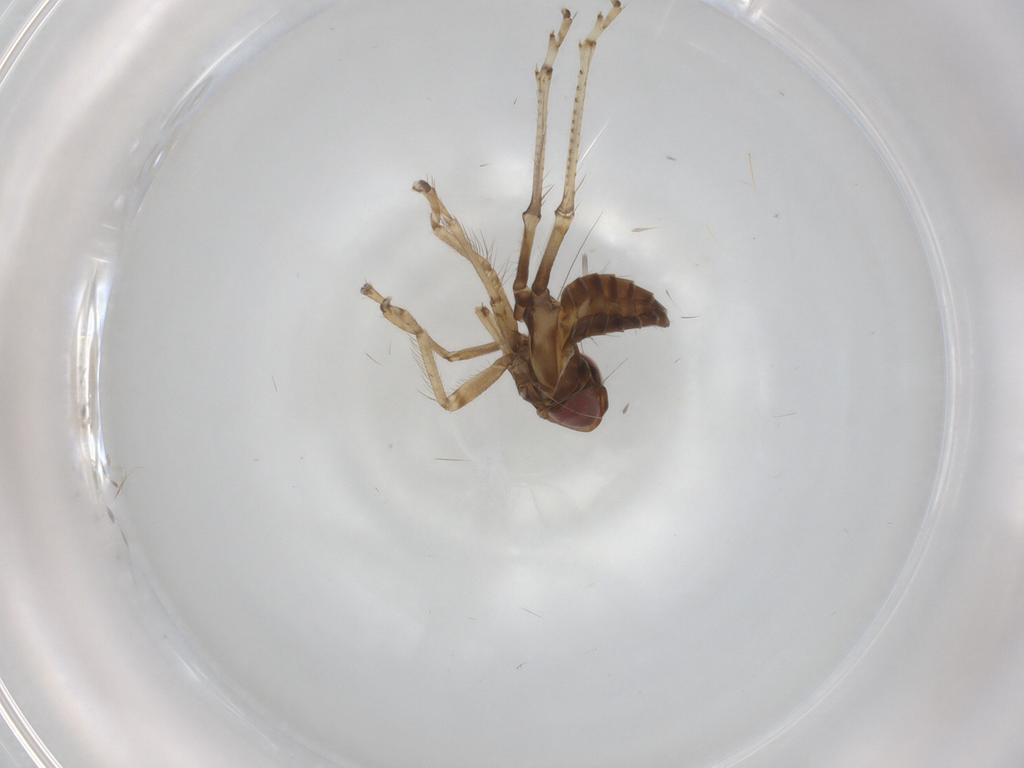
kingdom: Animalia
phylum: Arthropoda
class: Insecta
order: Hemiptera
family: Cicadellidae
